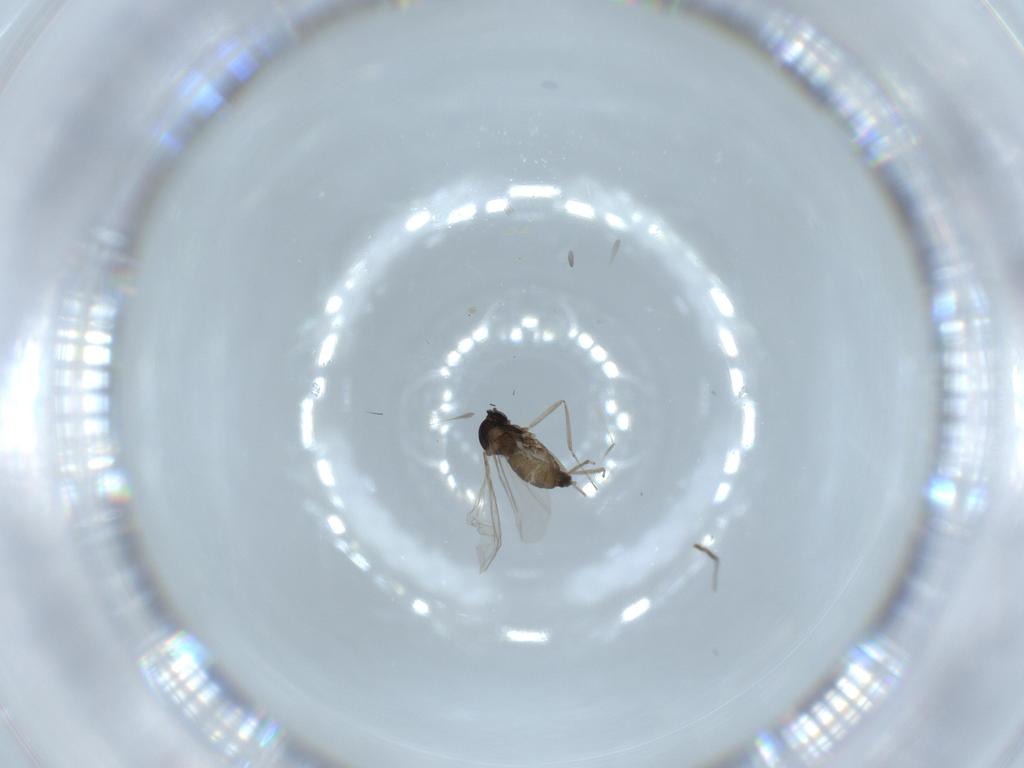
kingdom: Animalia
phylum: Arthropoda
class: Insecta
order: Diptera
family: Cecidomyiidae
